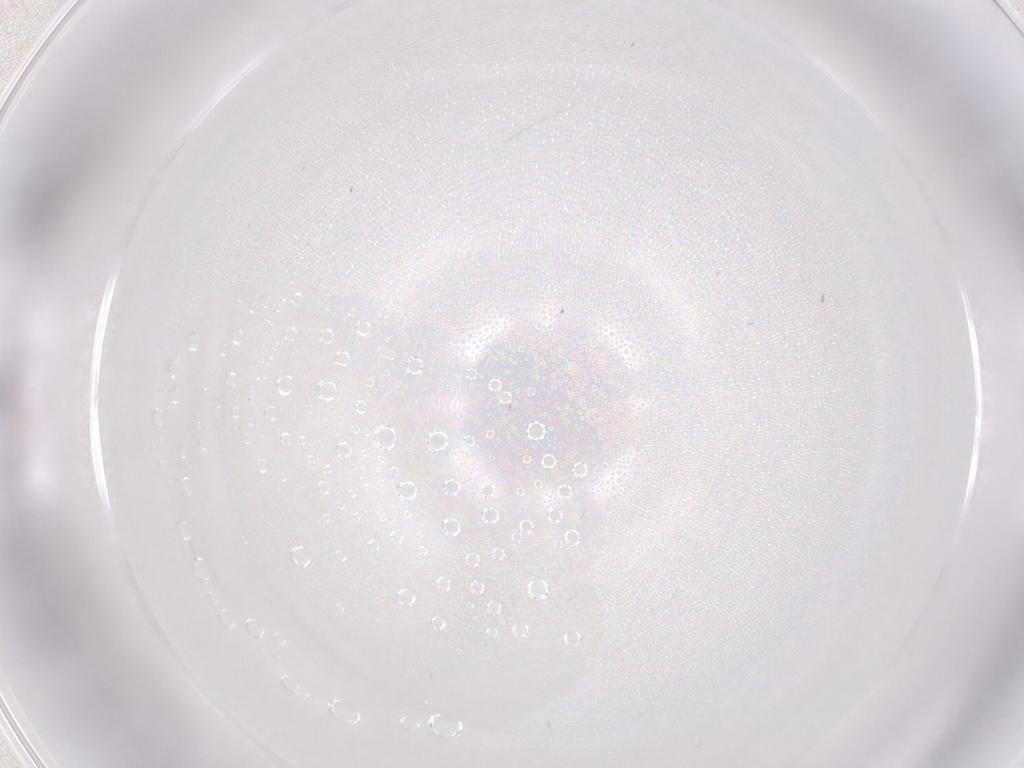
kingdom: Animalia
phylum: Arthropoda
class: Insecta
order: Hemiptera
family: Aleyrodidae
